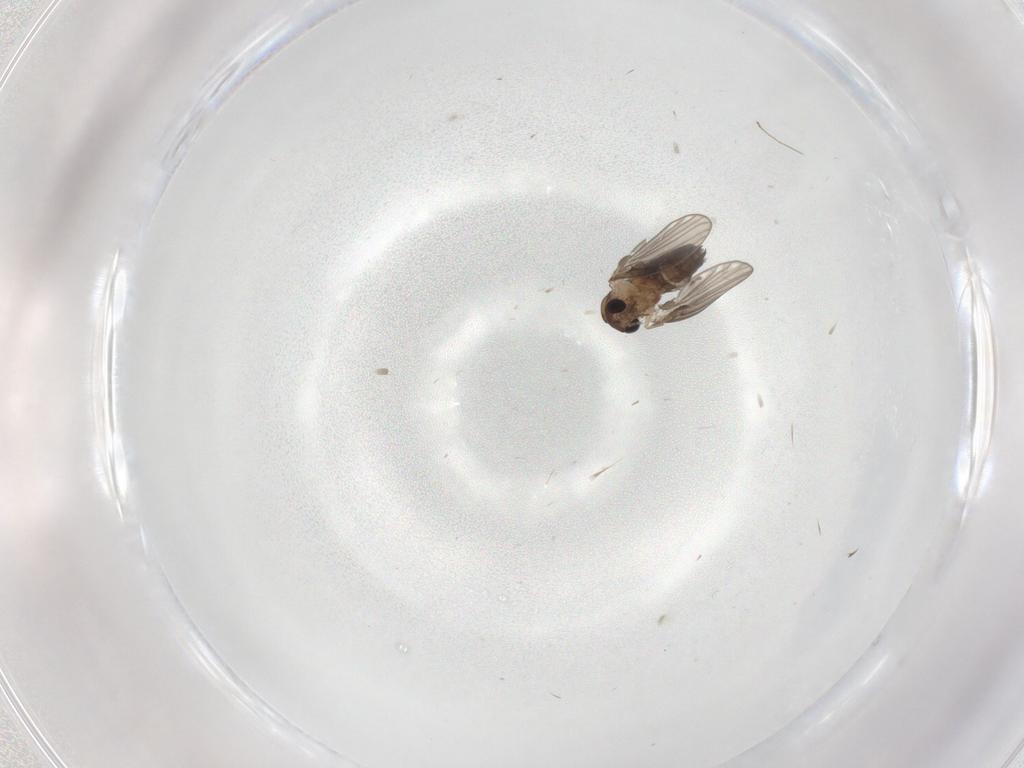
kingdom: Animalia
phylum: Arthropoda
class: Insecta
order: Diptera
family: Psychodidae
